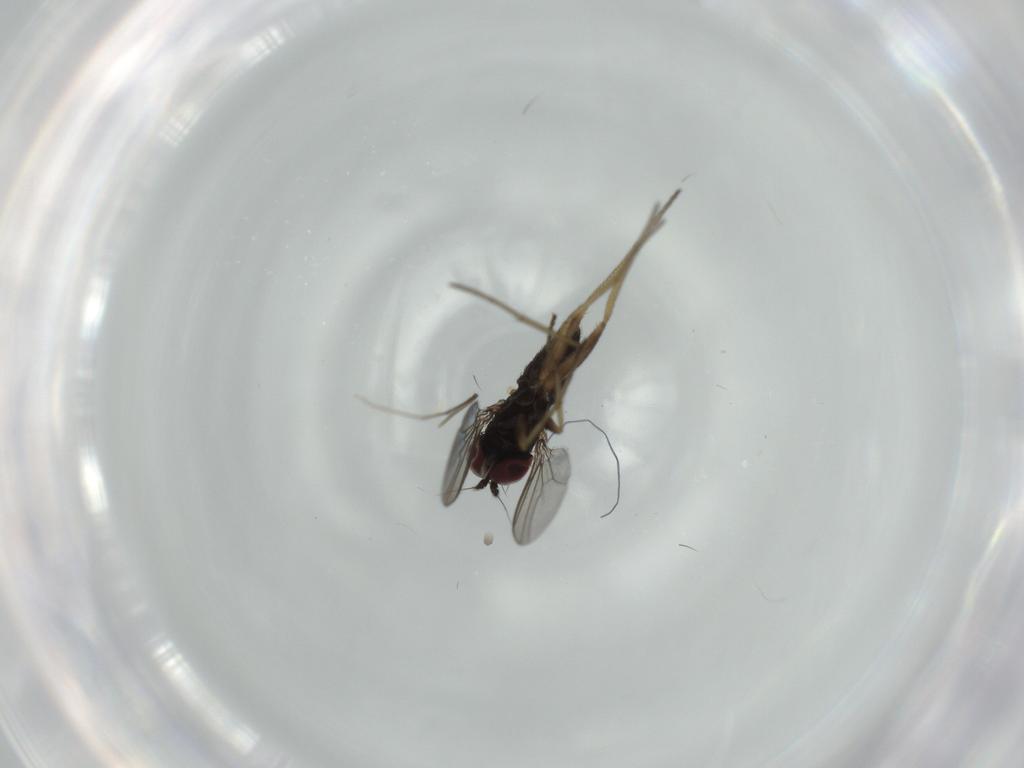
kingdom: Animalia
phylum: Arthropoda
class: Insecta
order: Diptera
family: Dolichopodidae
